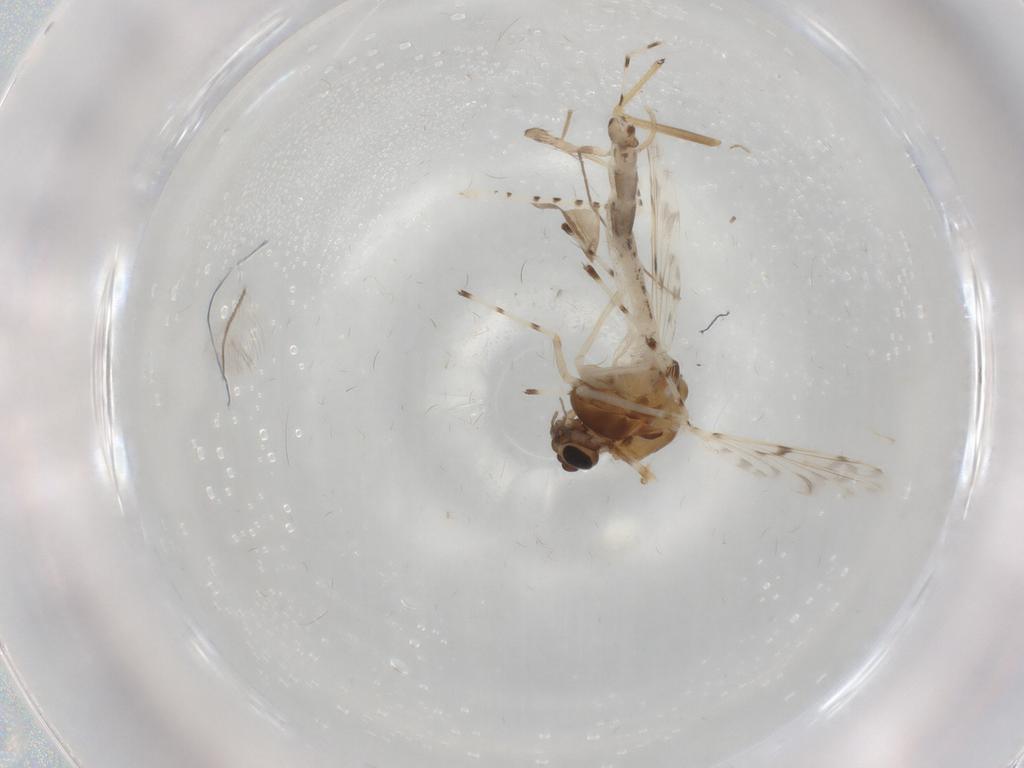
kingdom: Animalia
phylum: Arthropoda
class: Insecta
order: Diptera
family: Chironomidae
